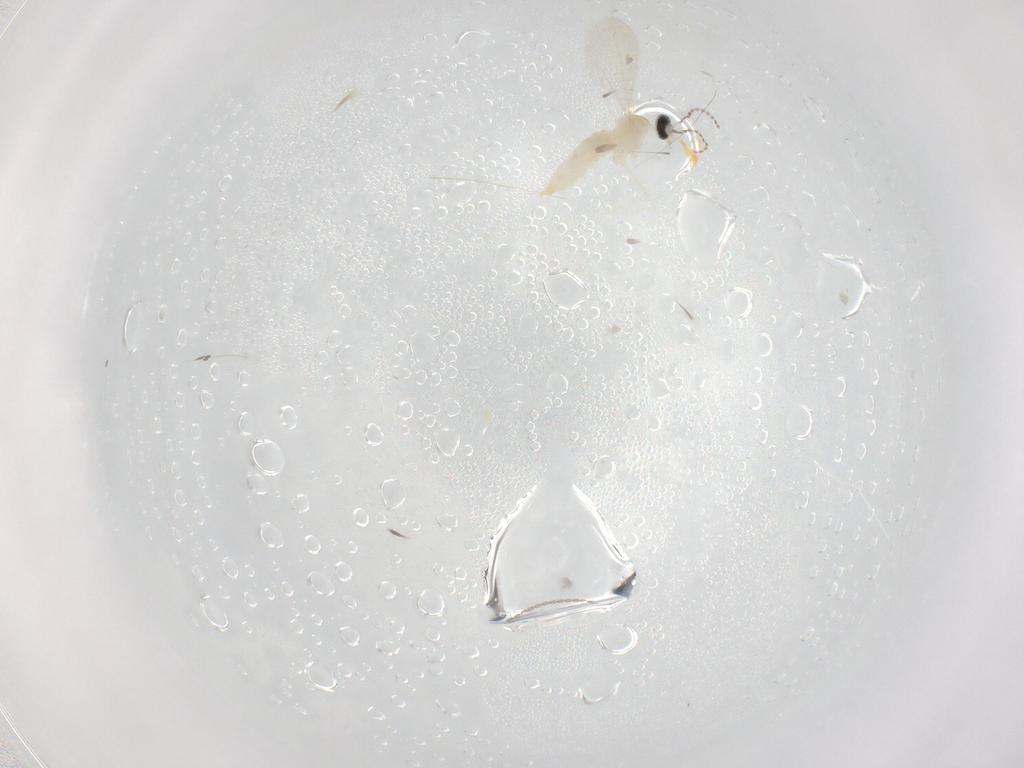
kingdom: Animalia
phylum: Arthropoda
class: Insecta
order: Diptera
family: Cecidomyiidae
